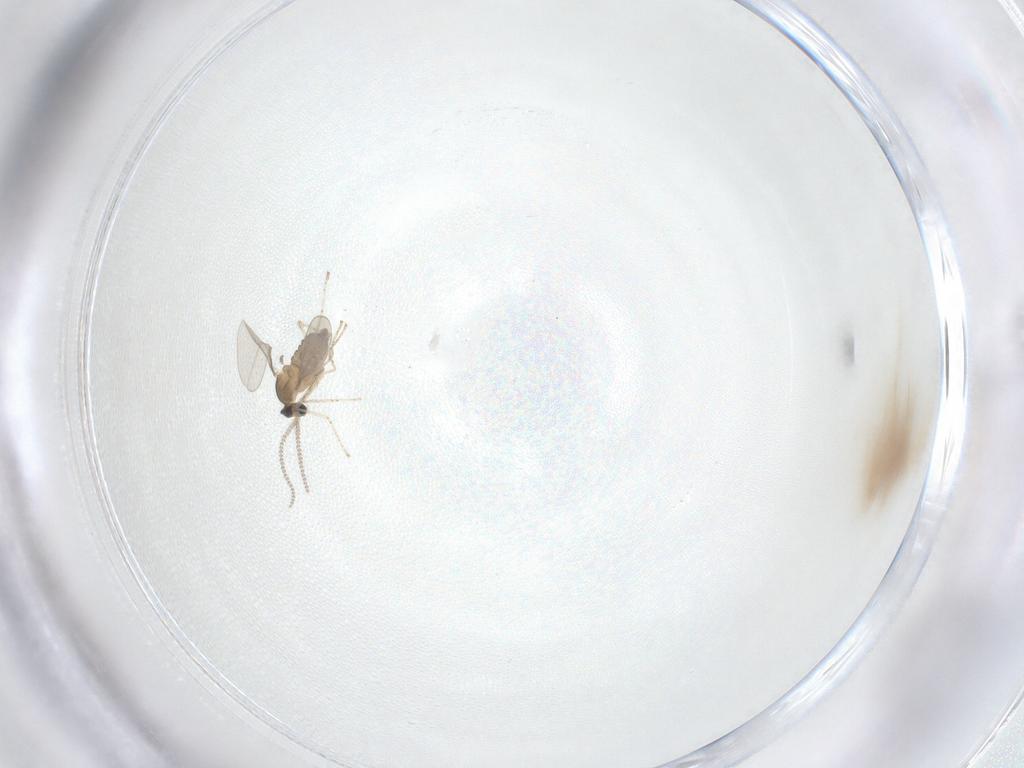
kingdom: Animalia
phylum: Arthropoda
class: Insecta
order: Diptera
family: Cecidomyiidae
